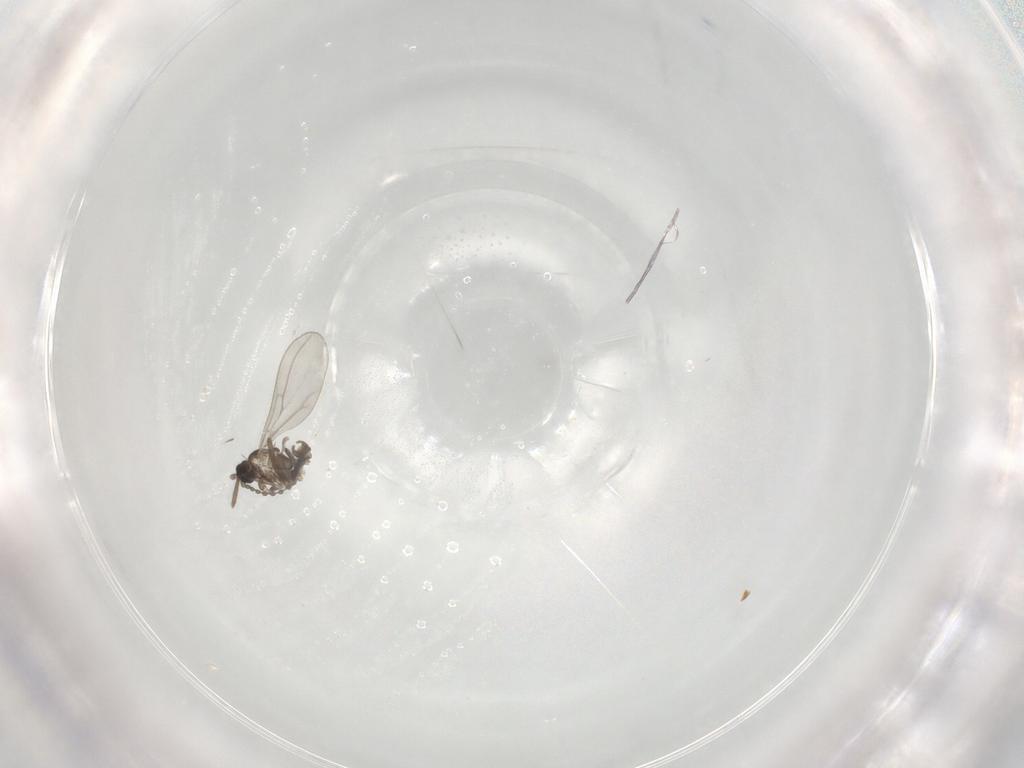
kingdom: Animalia
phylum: Arthropoda
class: Insecta
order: Diptera
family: Cecidomyiidae
